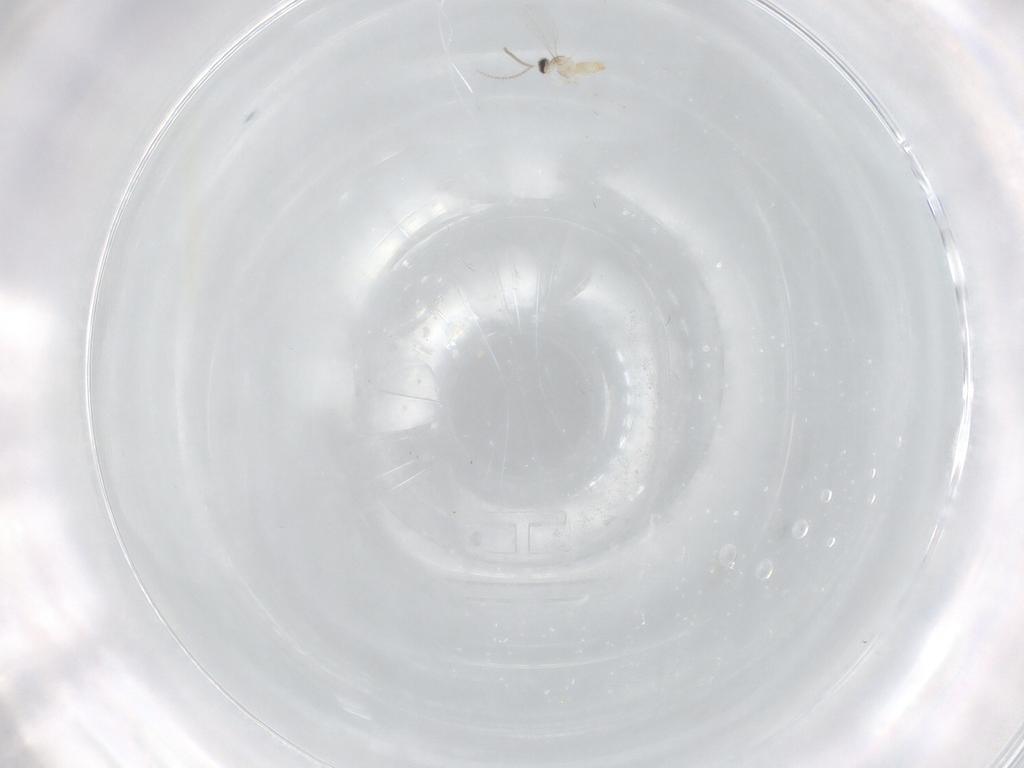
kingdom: Animalia
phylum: Arthropoda
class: Insecta
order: Diptera
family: Cecidomyiidae
